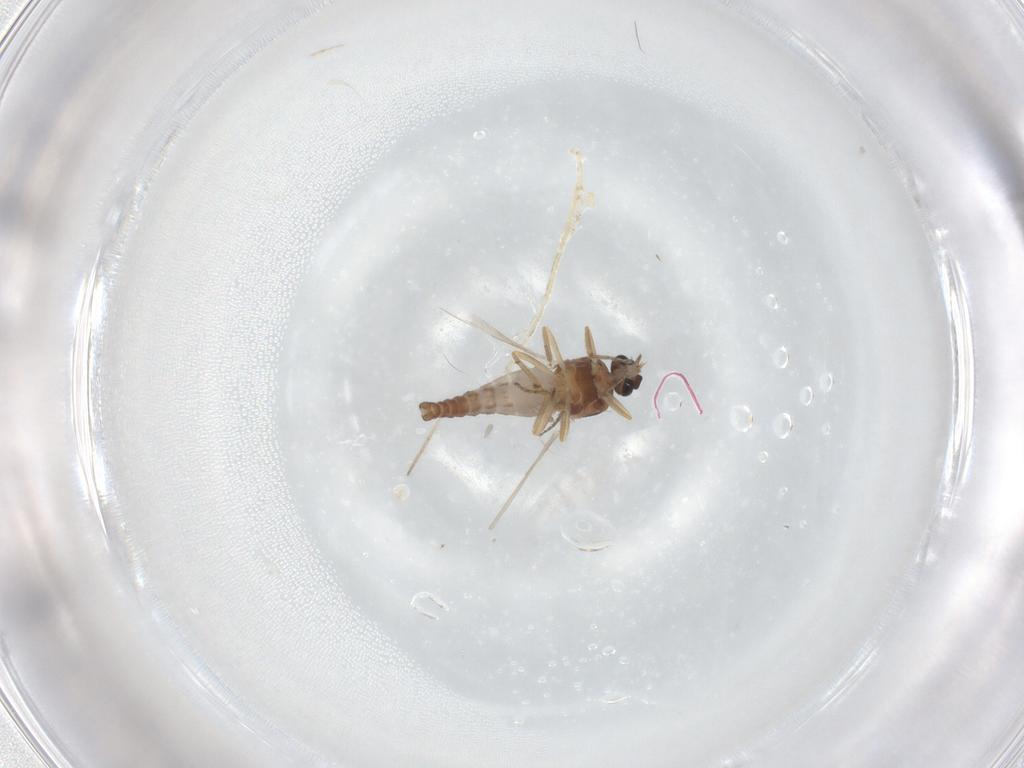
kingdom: Animalia
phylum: Arthropoda
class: Insecta
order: Diptera
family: Ceratopogonidae
